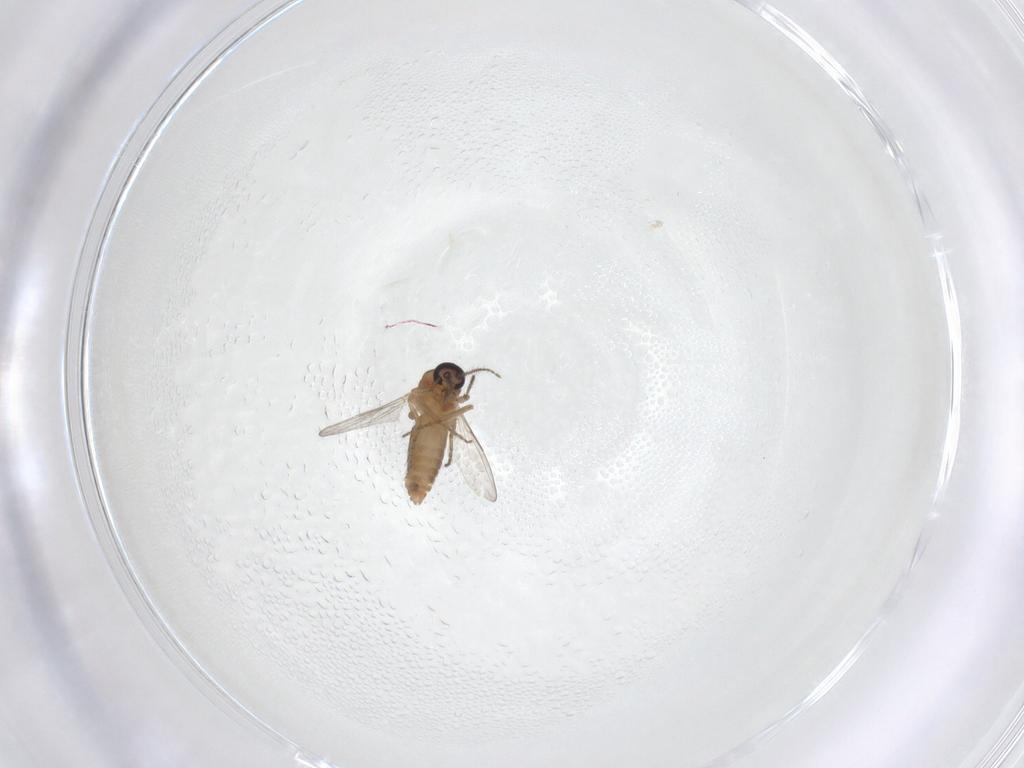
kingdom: Animalia
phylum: Arthropoda
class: Insecta
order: Diptera
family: Ceratopogonidae
